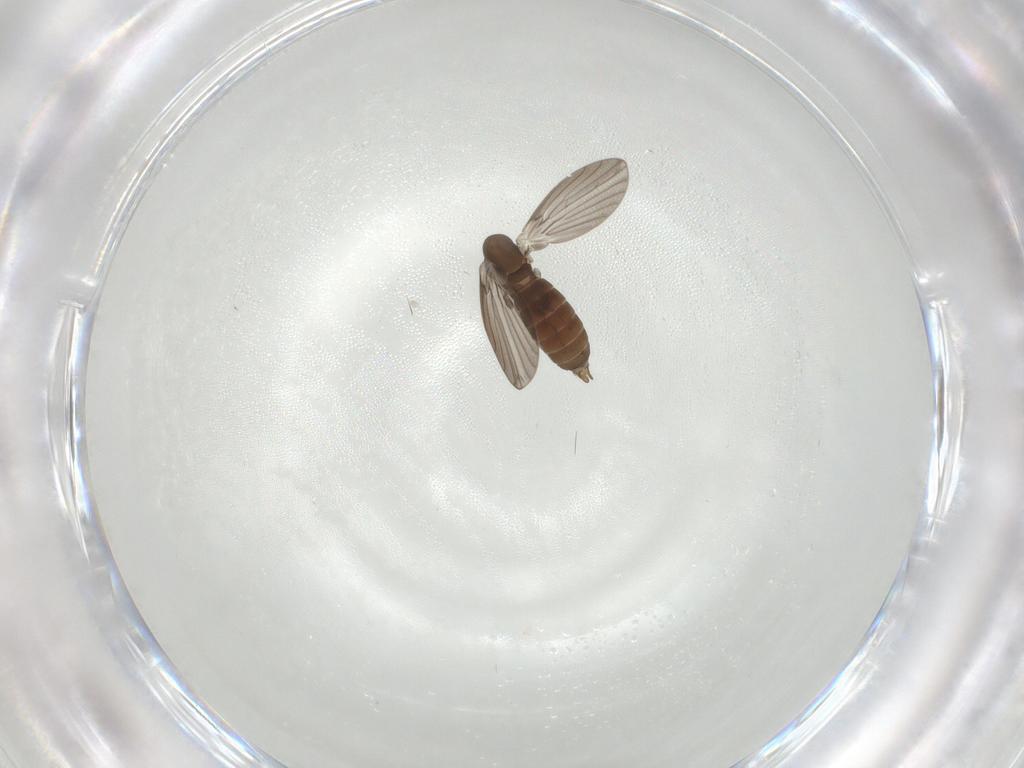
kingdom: Animalia
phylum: Arthropoda
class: Insecta
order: Diptera
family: Cecidomyiidae
